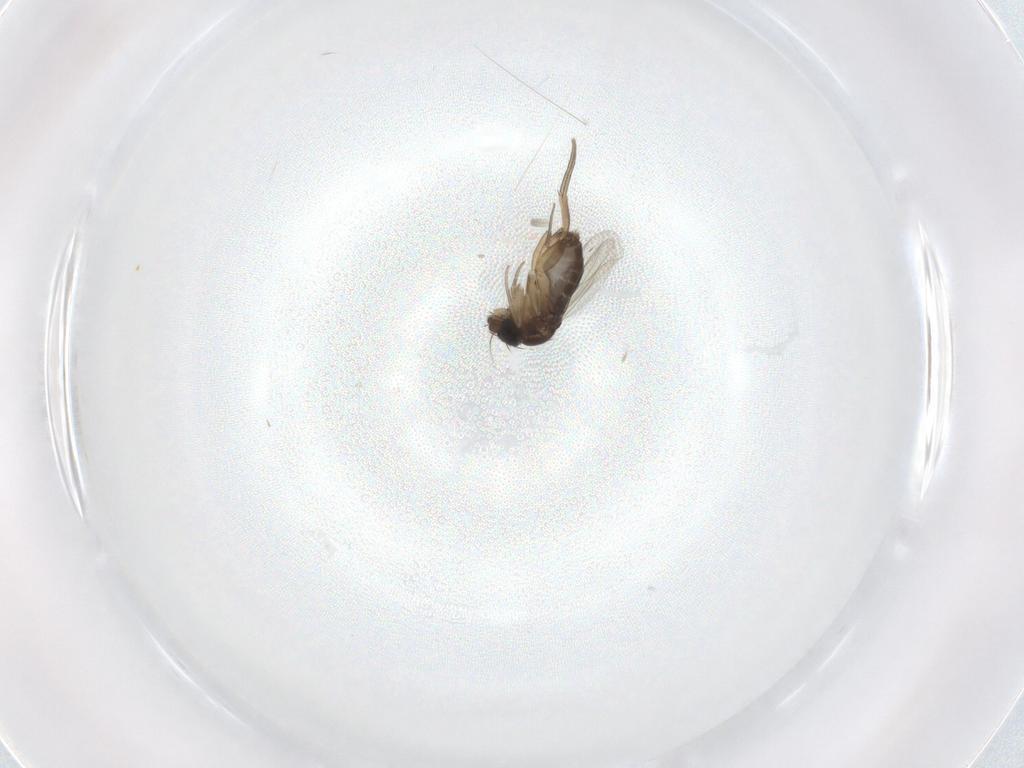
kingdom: Animalia
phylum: Arthropoda
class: Insecta
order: Diptera
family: Phoridae
